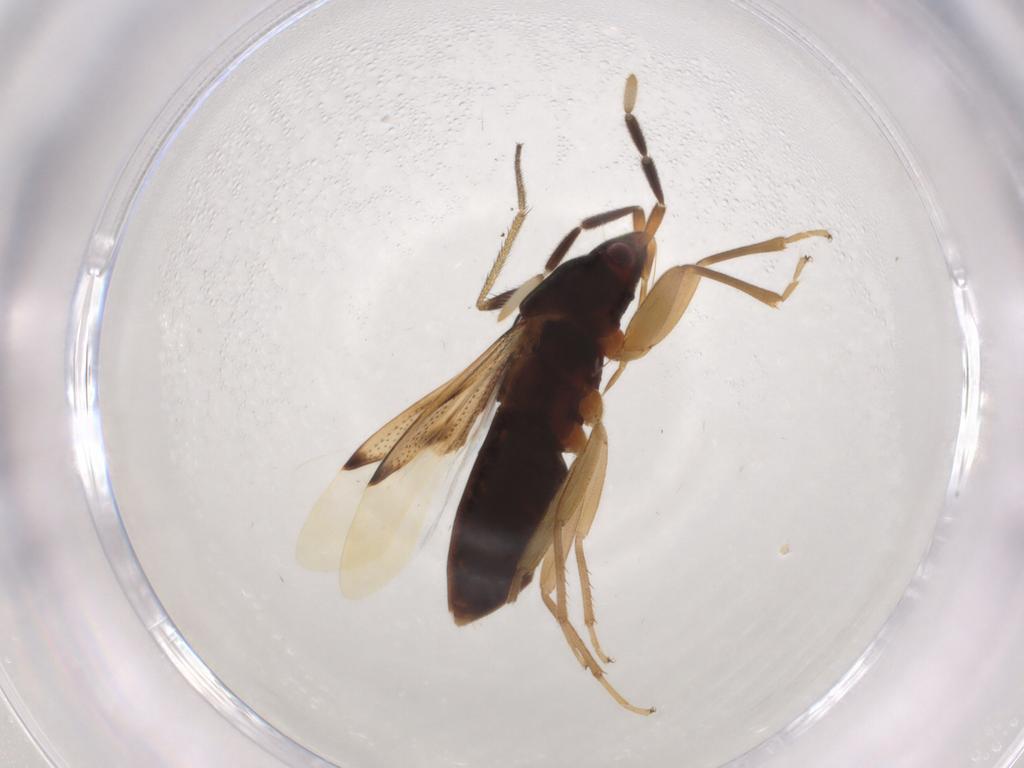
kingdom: Animalia
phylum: Arthropoda
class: Insecta
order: Hemiptera
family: Rhyparochromidae
